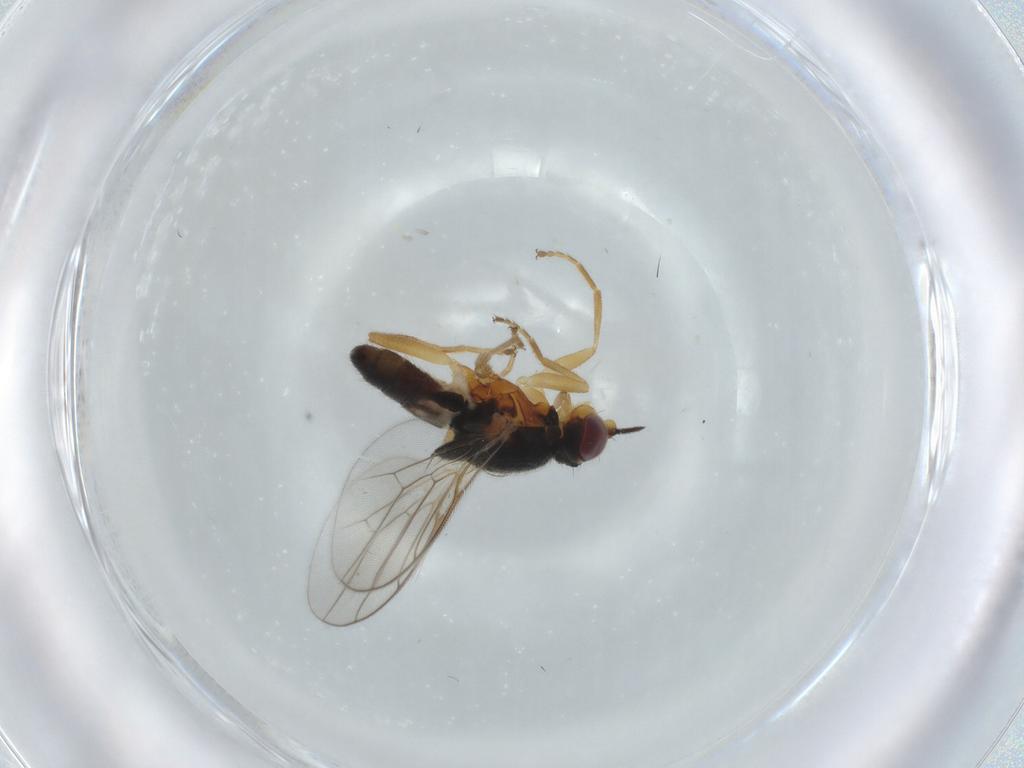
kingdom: Animalia
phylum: Arthropoda
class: Insecta
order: Diptera
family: Chloropidae
